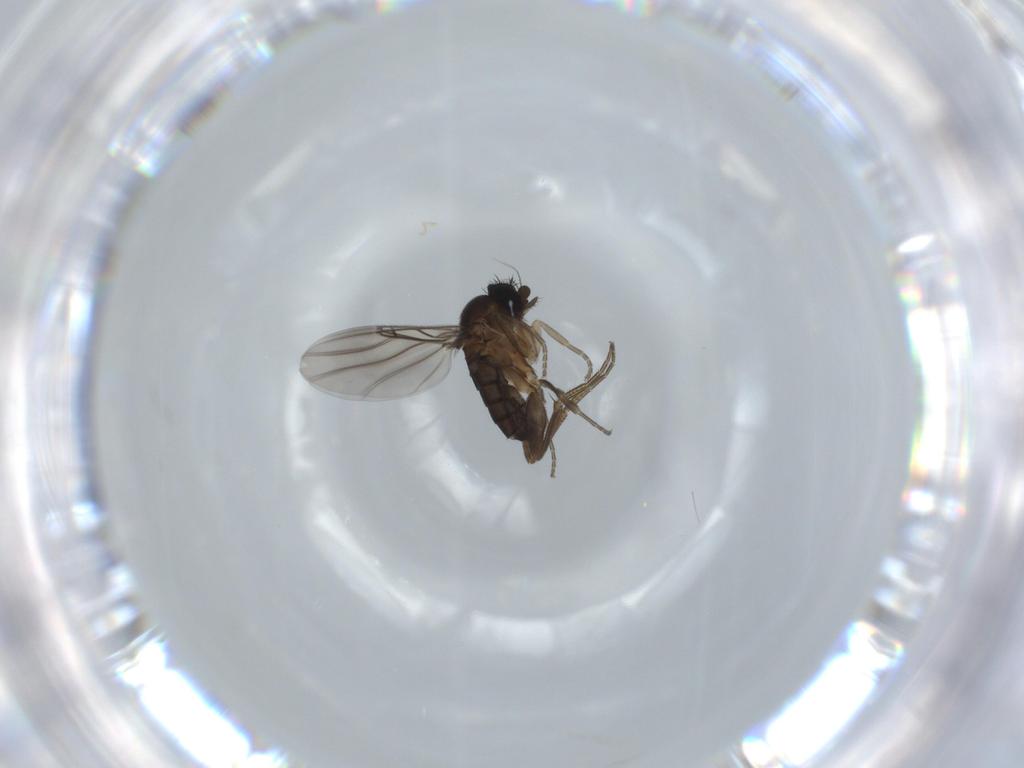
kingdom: Animalia
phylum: Arthropoda
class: Insecta
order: Diptera
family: Phoridae
